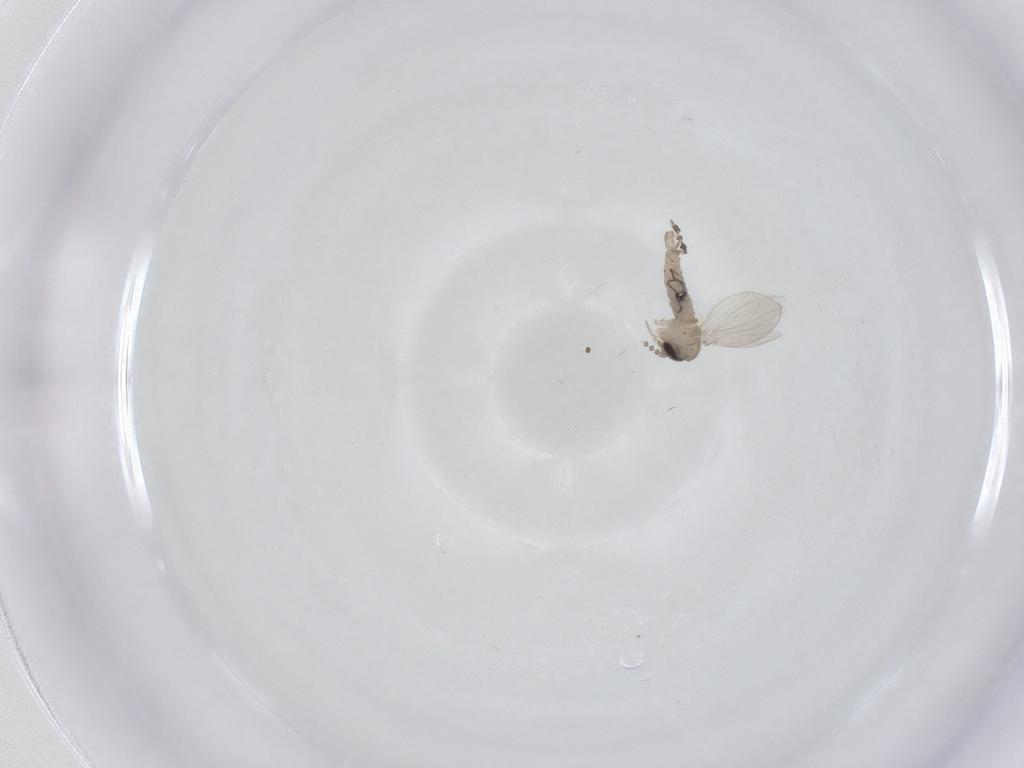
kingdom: Animalia
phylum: Arthropoda
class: Insecta
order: Diptera
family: Psychodidae
